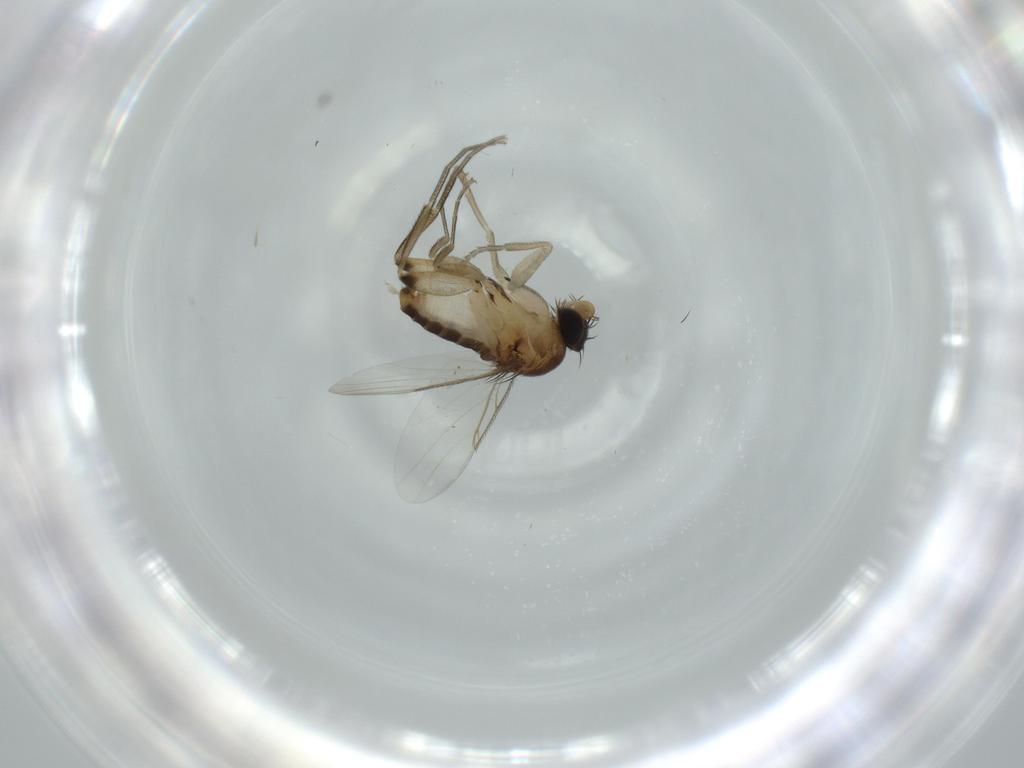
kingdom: Animalia
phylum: Arthropoda
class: Insecta
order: Diptera
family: Phoridae
